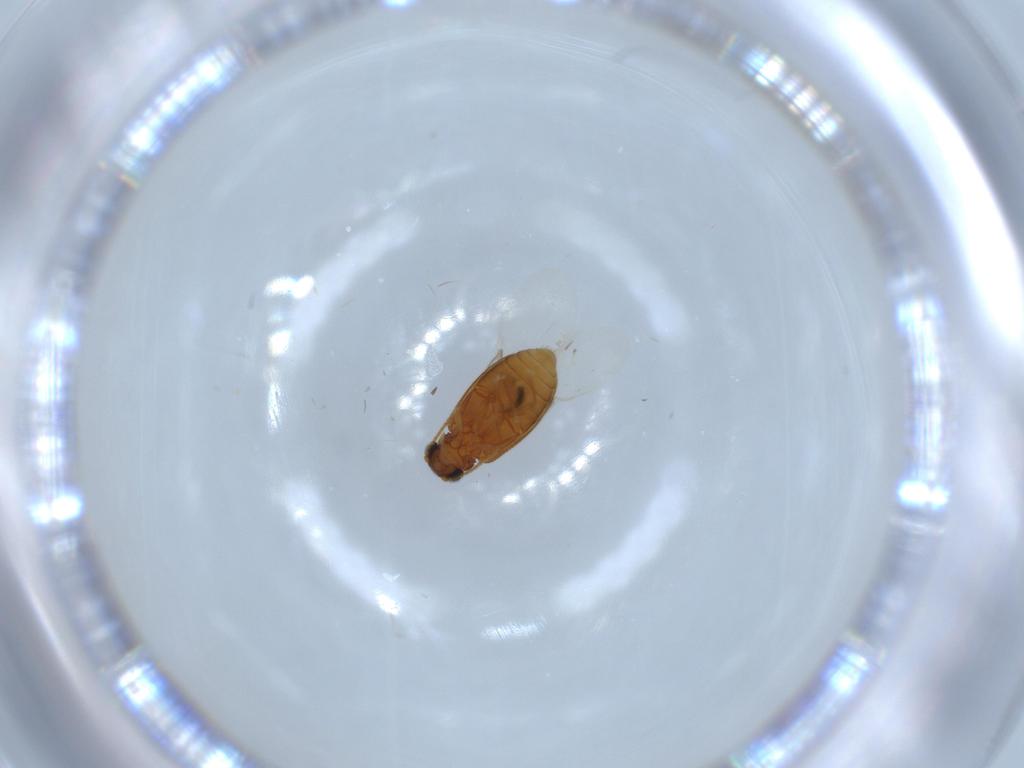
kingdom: Animalia
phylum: Arthropoda
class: Insecta
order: Coleoptera
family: Aderidae
